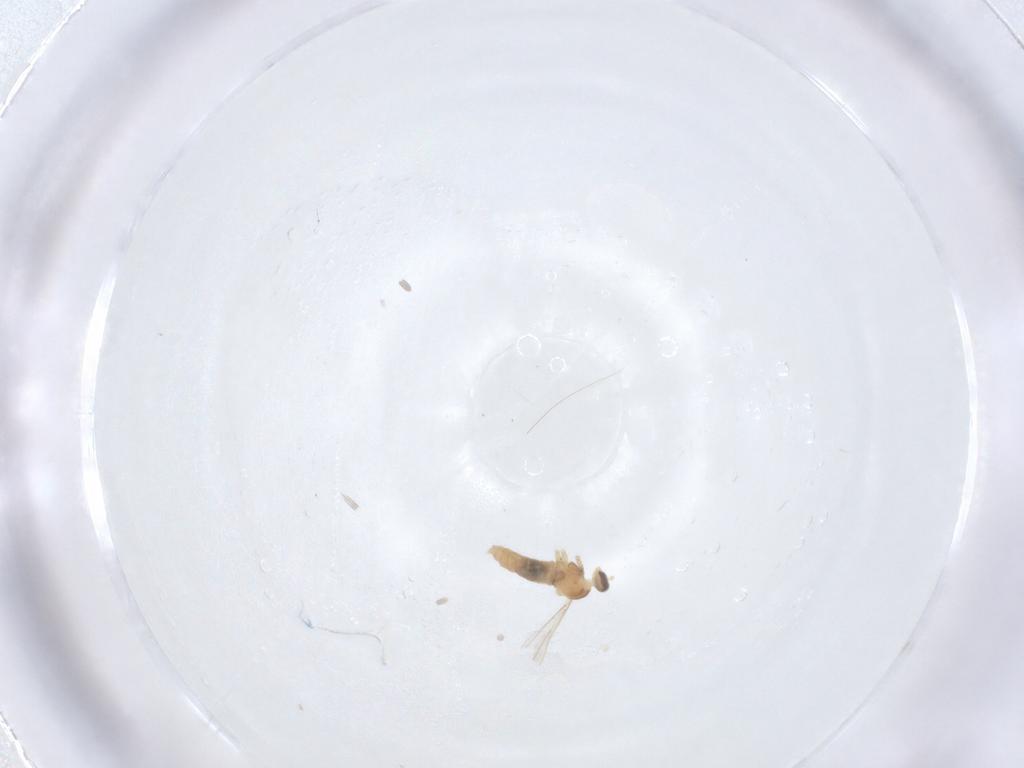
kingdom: Animalia
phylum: Arthropoda
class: Insecta
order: Diptera
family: Cecidomyiidae
